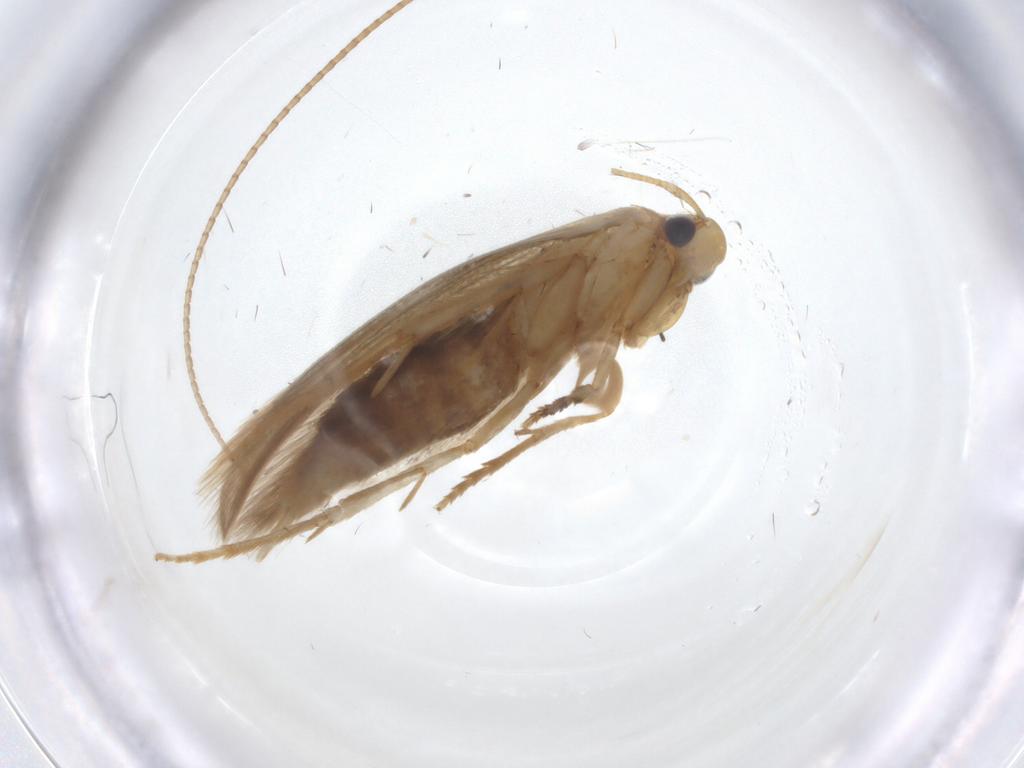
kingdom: Animalia
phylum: Arthropoda
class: Insecta
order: Lepidoptera
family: Tineidae
